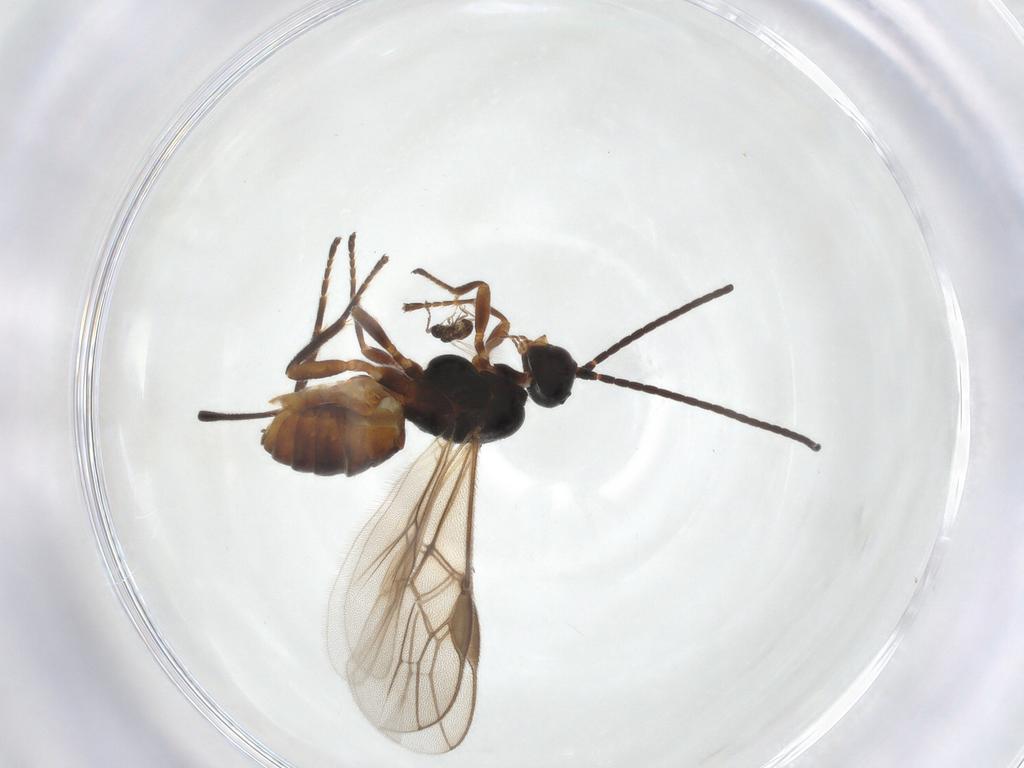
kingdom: Animalia
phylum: Arthropoda
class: Insecta
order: Hymenoptera
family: Braconidae
